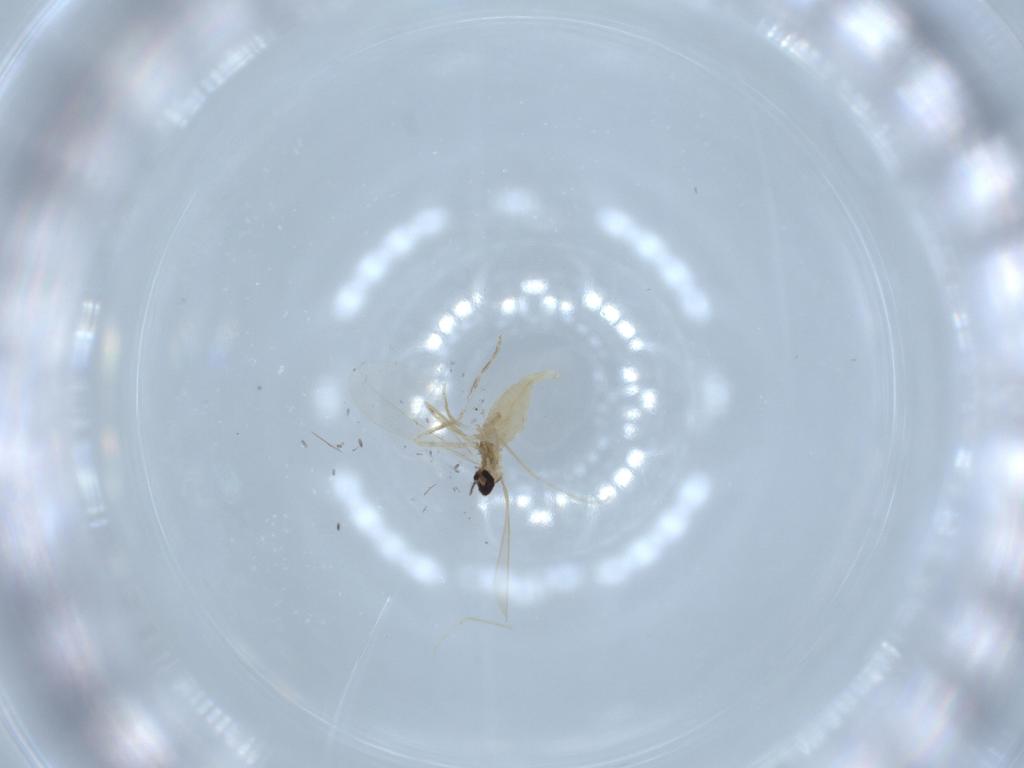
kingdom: Animalia
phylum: Arthropoda
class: Insecta
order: Diptera
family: Cecidomyiidae
